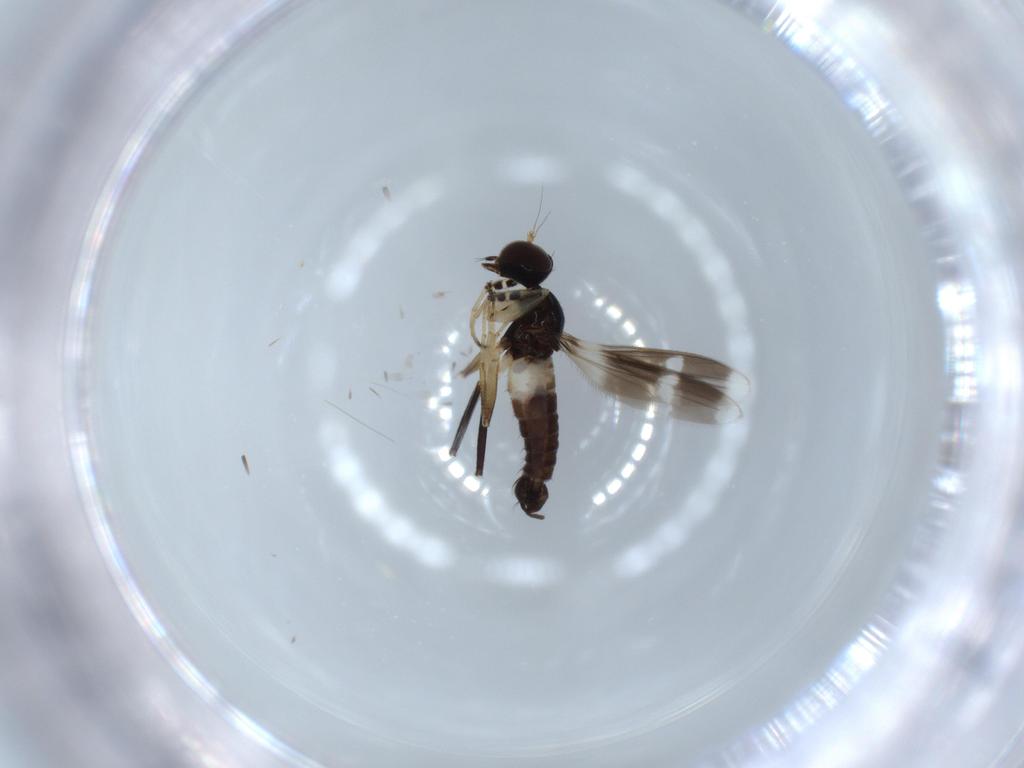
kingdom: Animalia
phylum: Arthropoda
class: Insecta
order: Diptera
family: Hybotidae
